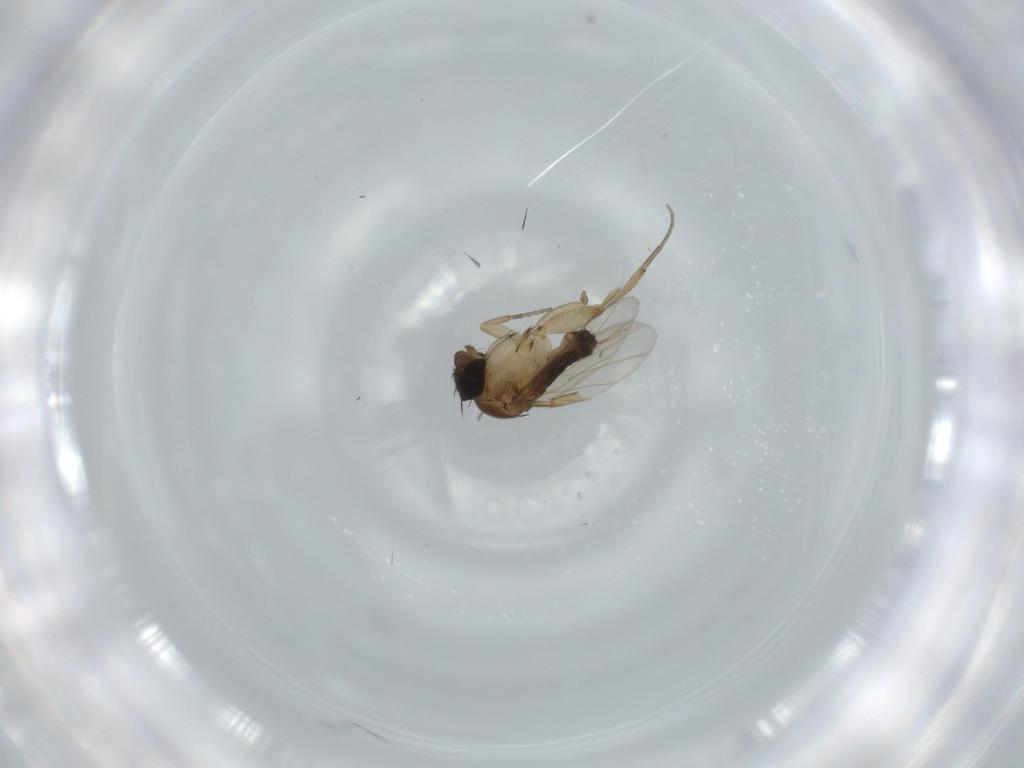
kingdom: Animalia
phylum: Arthropoda
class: Insecta
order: Diptera
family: Phoridae
